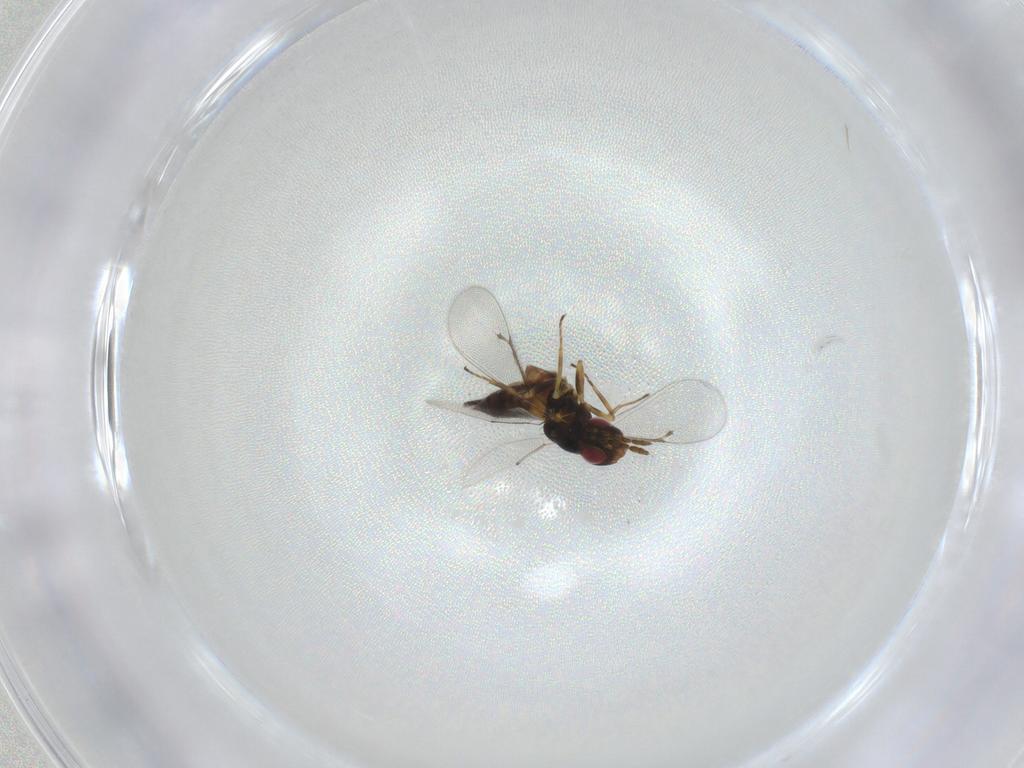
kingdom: Animalia
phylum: Arthropoda
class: Insecta
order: Hymenoptera
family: Eulophidae
